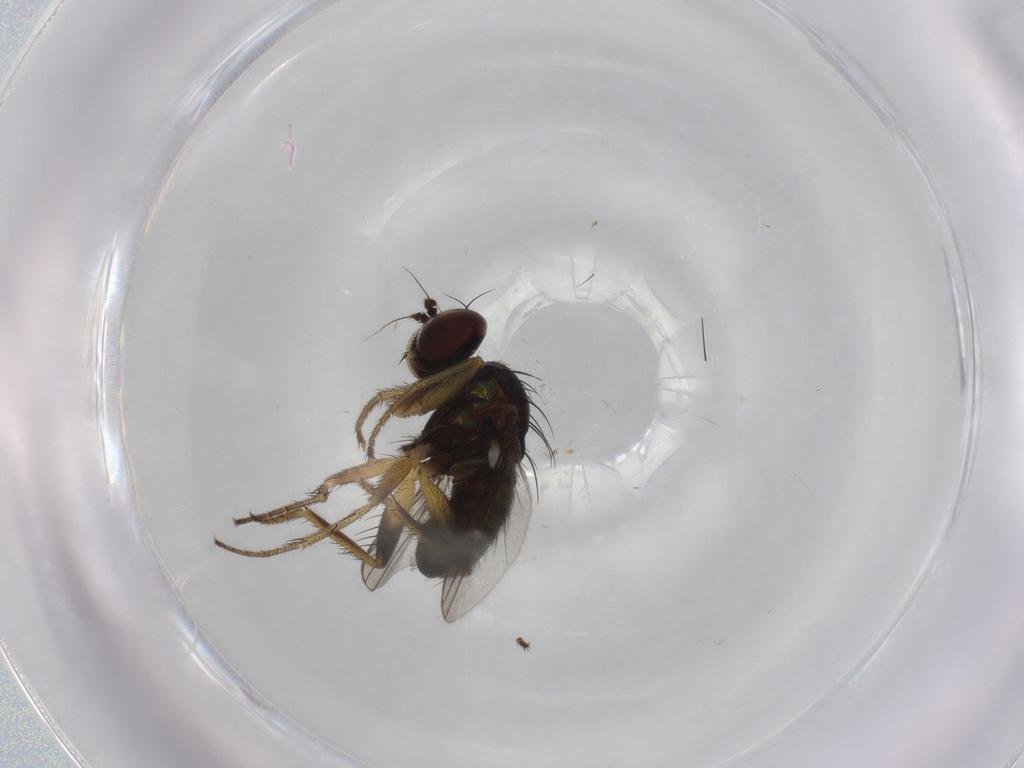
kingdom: Animalia
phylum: Arthropoda
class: Insecta
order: Diptera
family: Dolichopodidae
